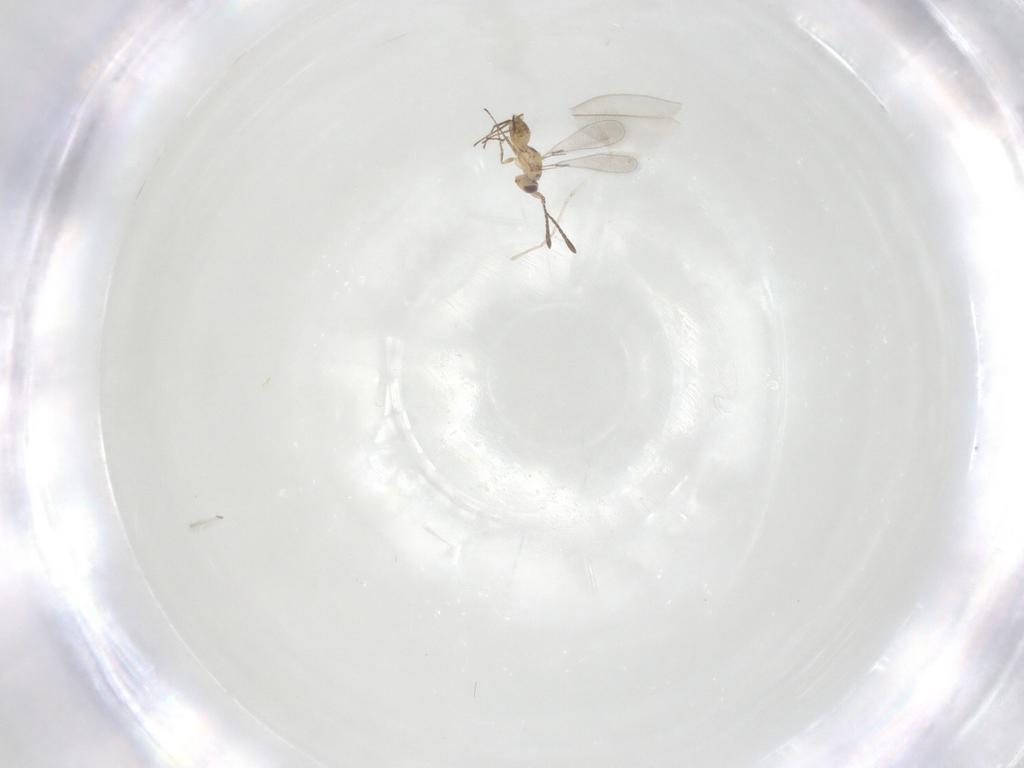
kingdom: Animalia
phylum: Arthropoda
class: Insecta
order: Hymenoptera
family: Mymaridae
